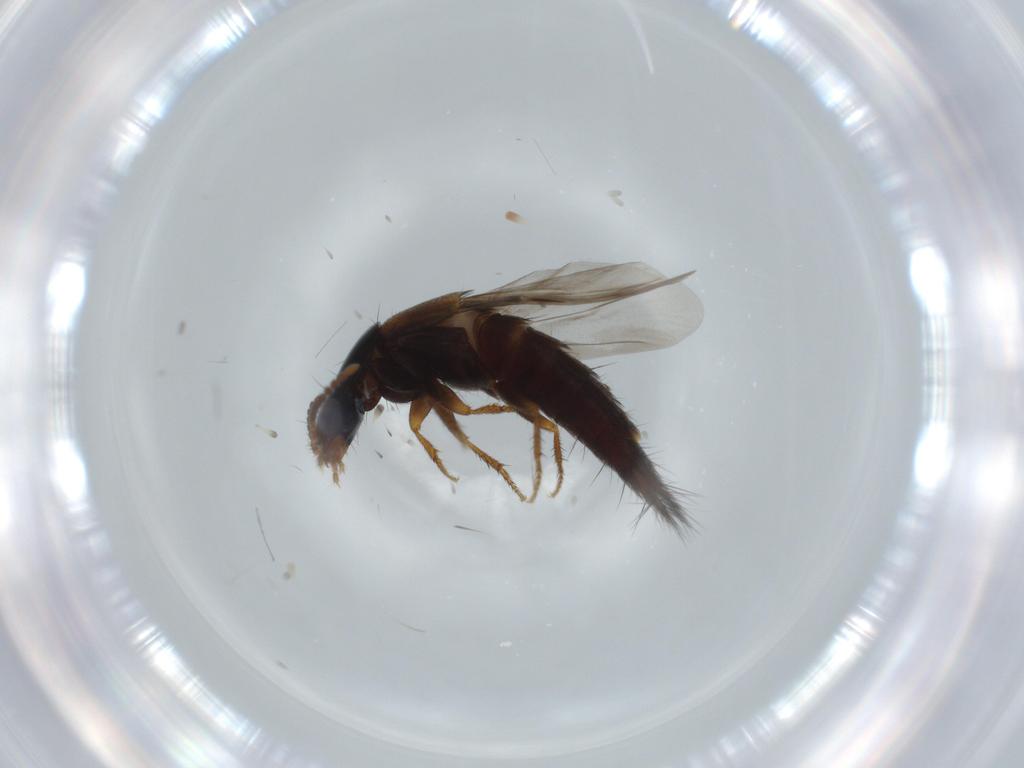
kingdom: Animalia
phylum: Arthropoda
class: Insecta
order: Coleoptera
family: Staphylinidae
